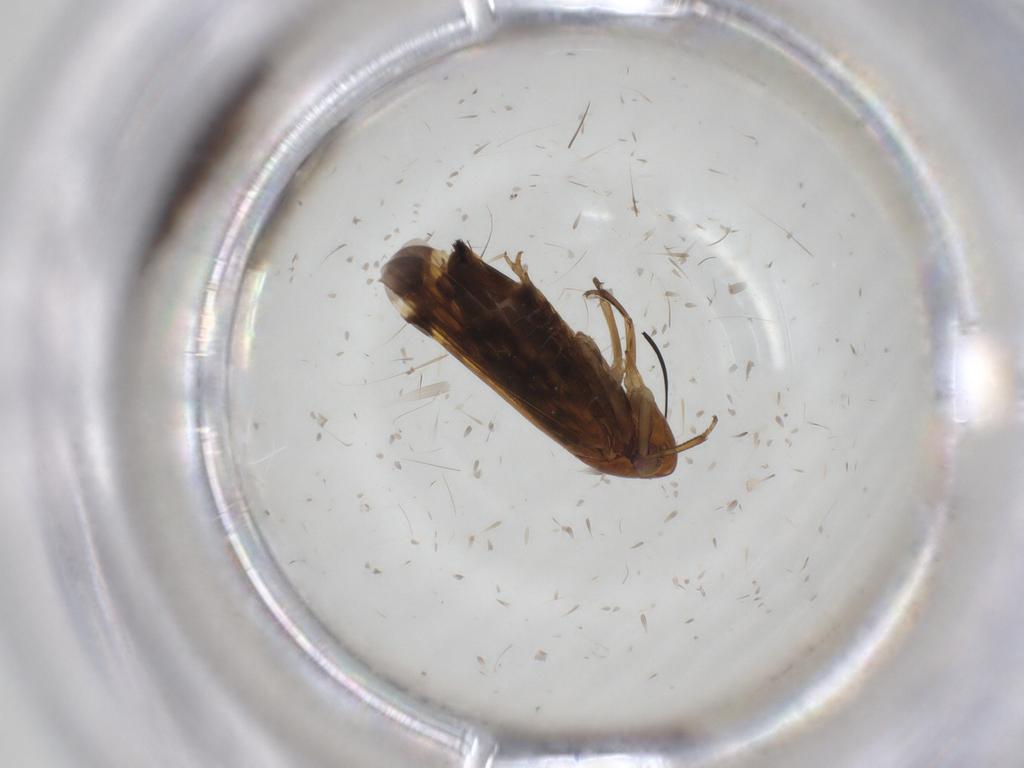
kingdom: Animalia
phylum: Arthropoda
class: Insecta
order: Hemiptera
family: Cicadellidae
